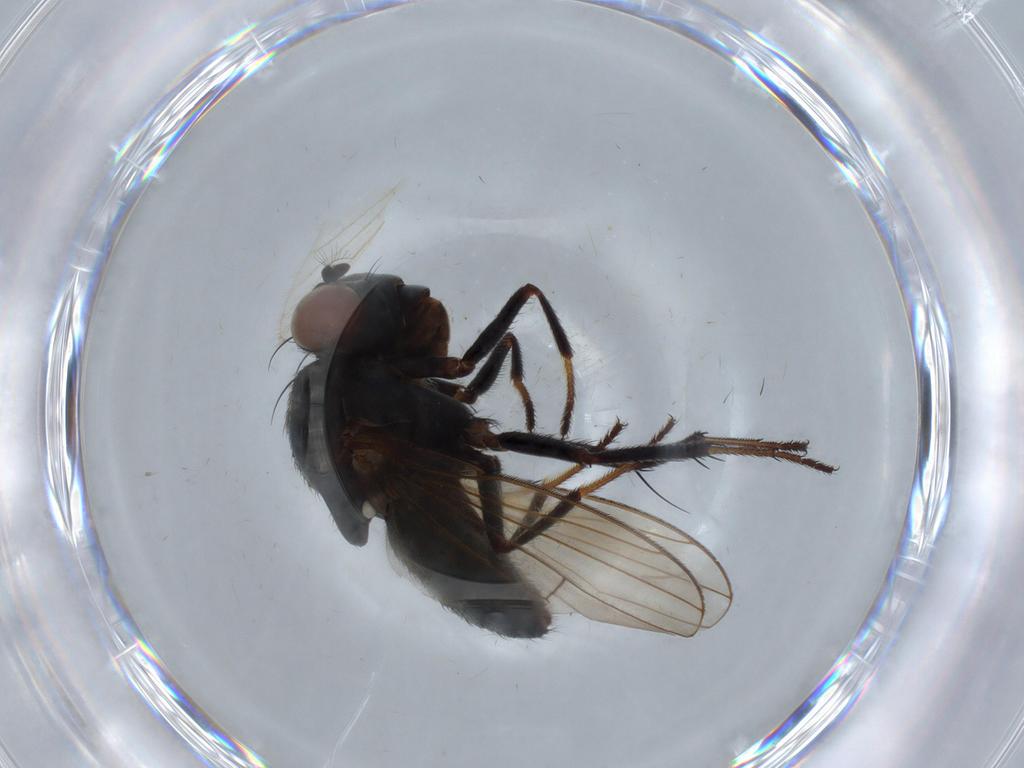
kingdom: Animalia
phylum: Arthropoda
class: Insecta
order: Diptera
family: Ephydridae
